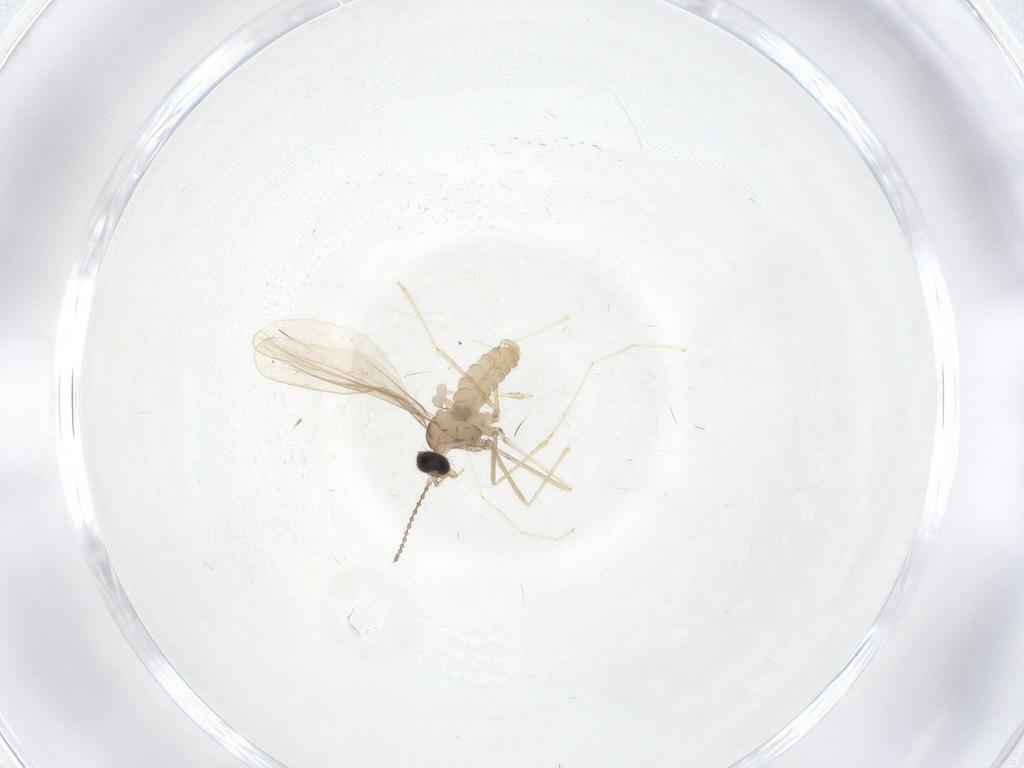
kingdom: Animalia
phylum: Arthropoda
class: Insecta
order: Diptera
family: Cecidomyiidae
